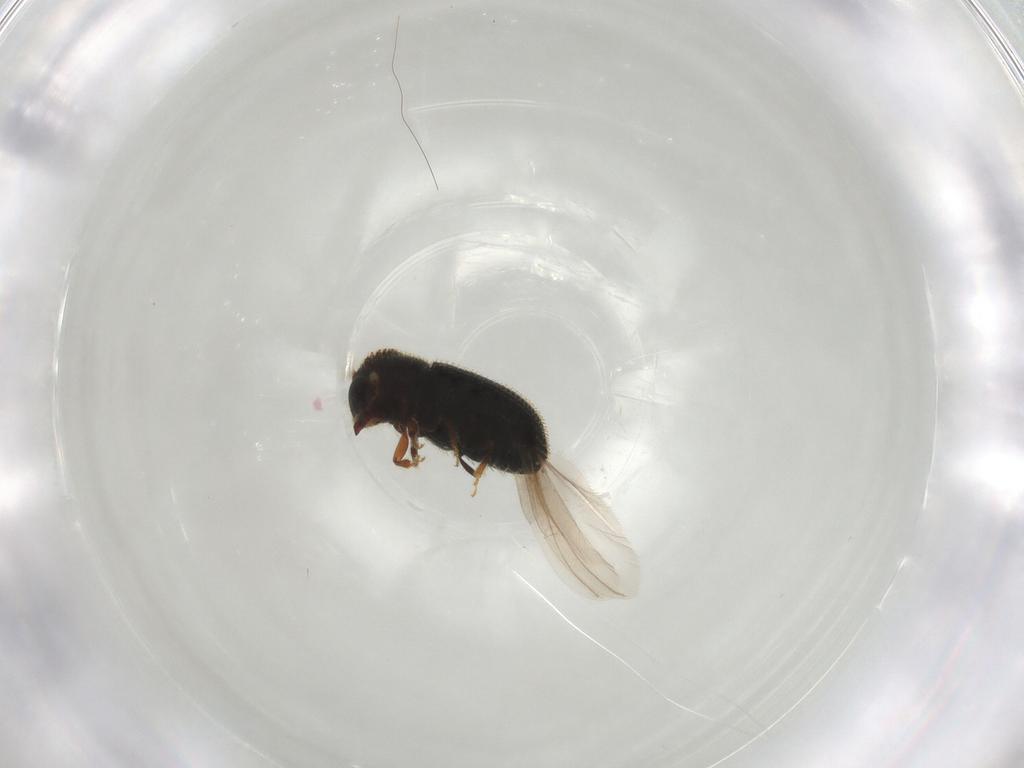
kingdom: Animalia
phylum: Arthropoda
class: Insecta
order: Coleoptera
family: Curculionidae
